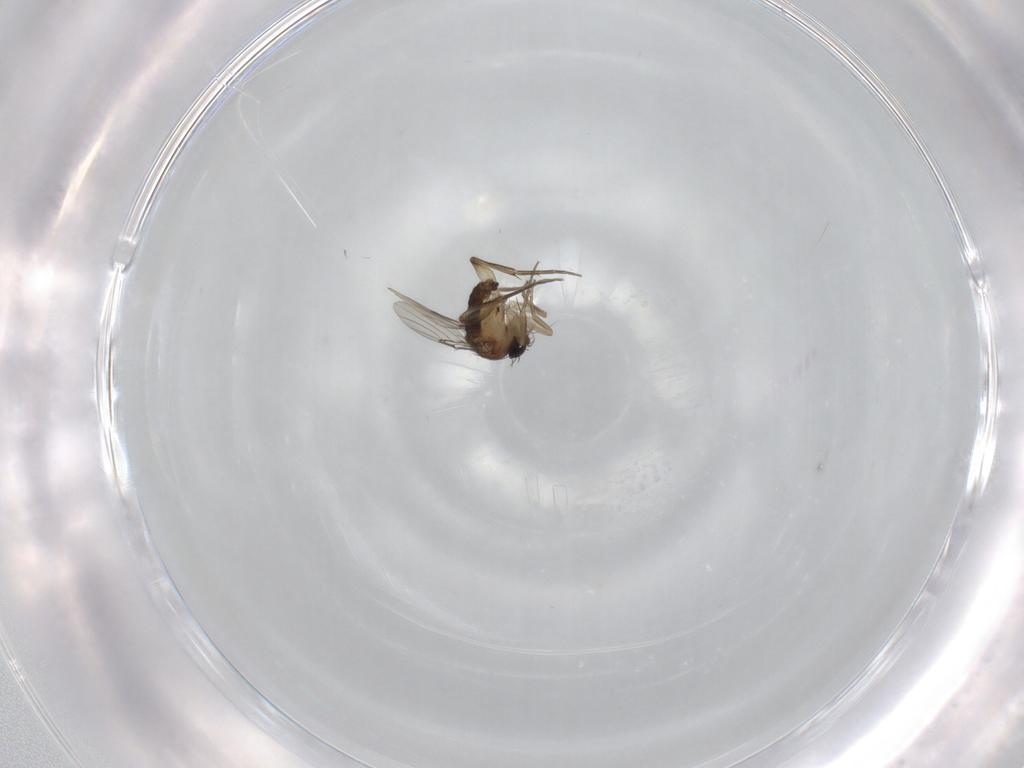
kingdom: Animalia
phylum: Arthropoda
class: Insecta
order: Diptera
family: Phoridae
